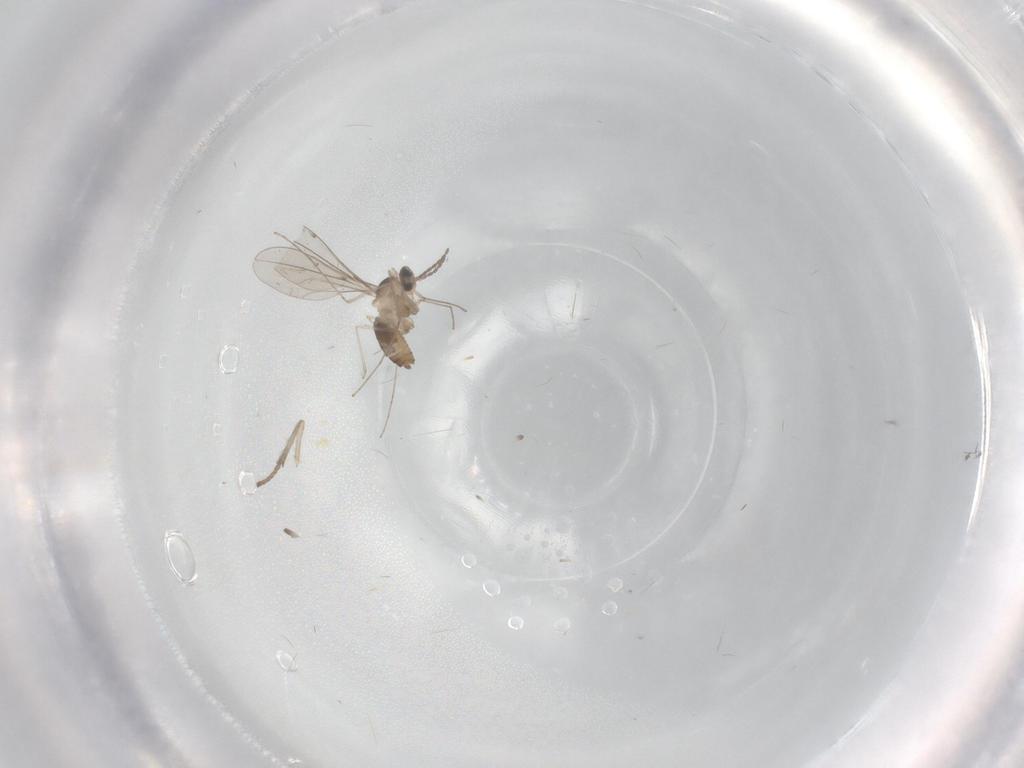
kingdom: Animalia
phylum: Arthropoda
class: Insecta
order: Diptera
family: Cecidomyiidae
